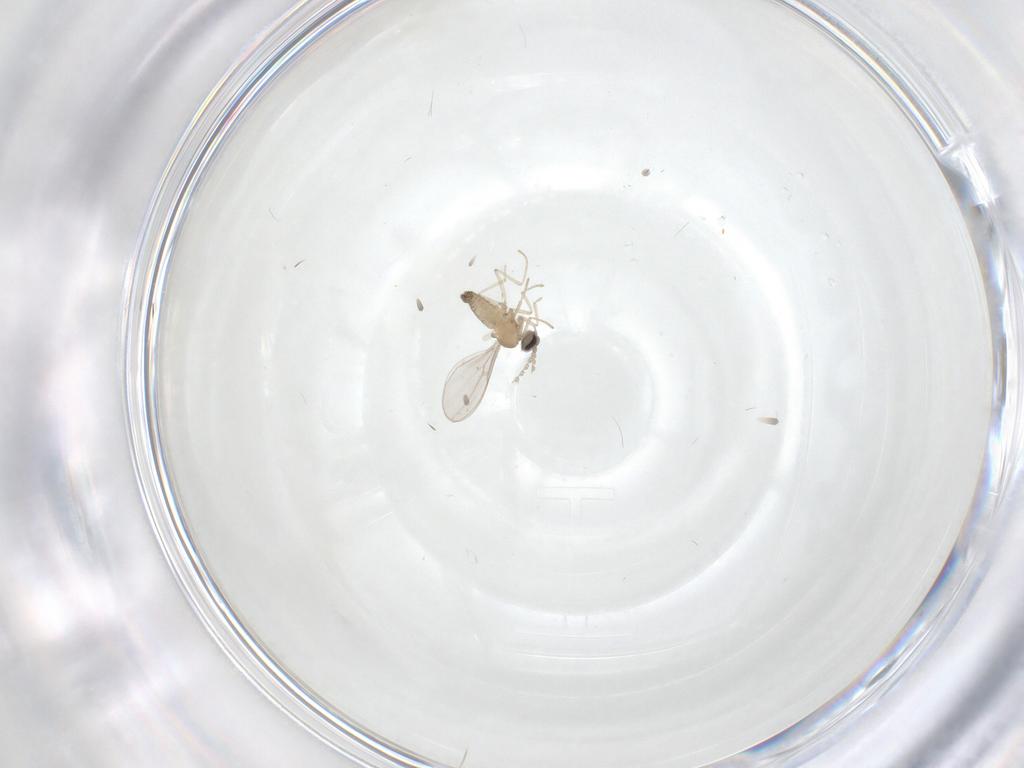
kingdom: Animalia
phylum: Arthropoda
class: Insecta
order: Diptera
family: Cecidomyiidae
